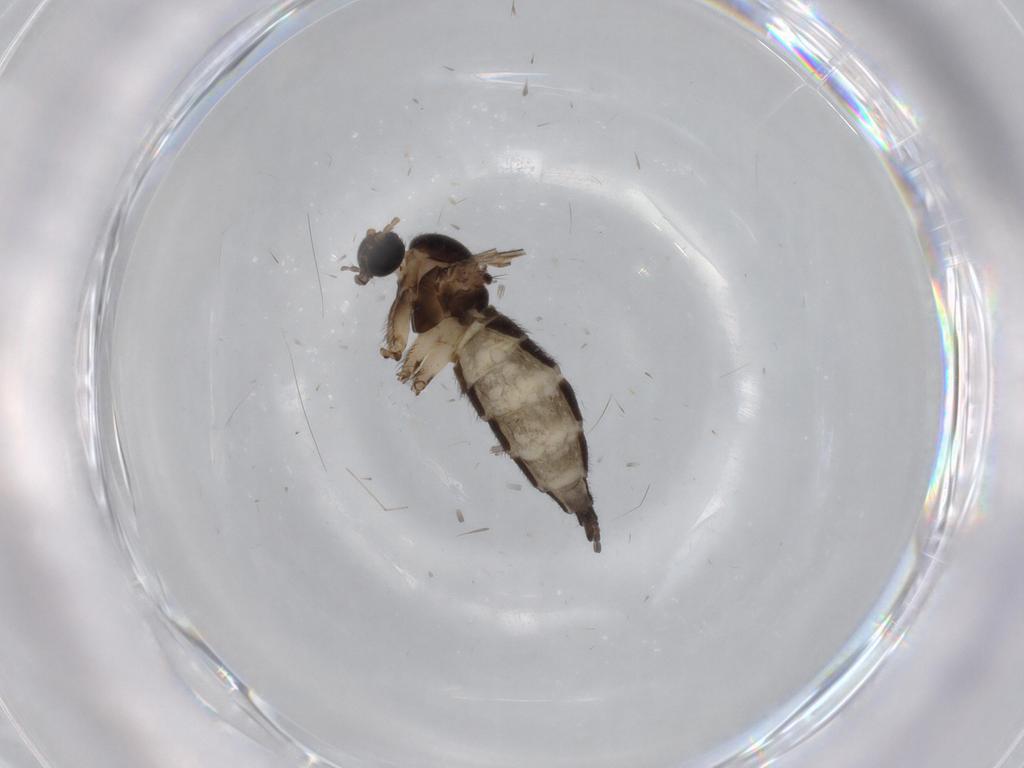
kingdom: Animalia
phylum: Arthropoda
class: Insecta
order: Diptera
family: Sciaridae
